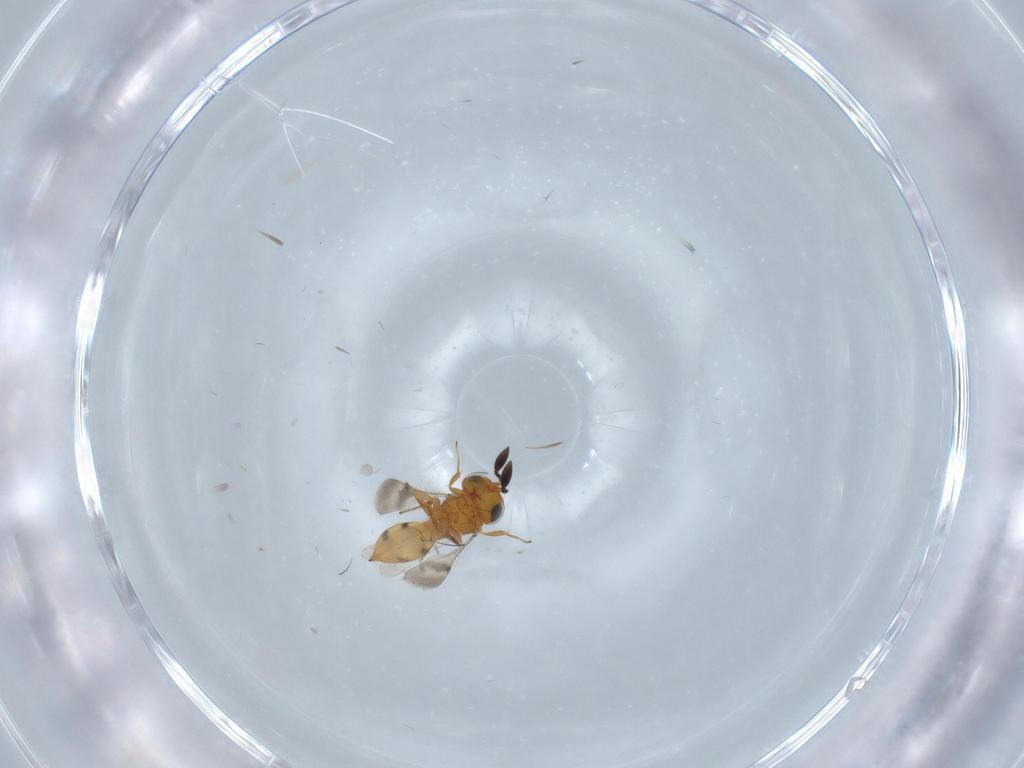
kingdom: Animalia
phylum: Arthropoda
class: Insecta
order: Hymenoptera
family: Scelionidae
